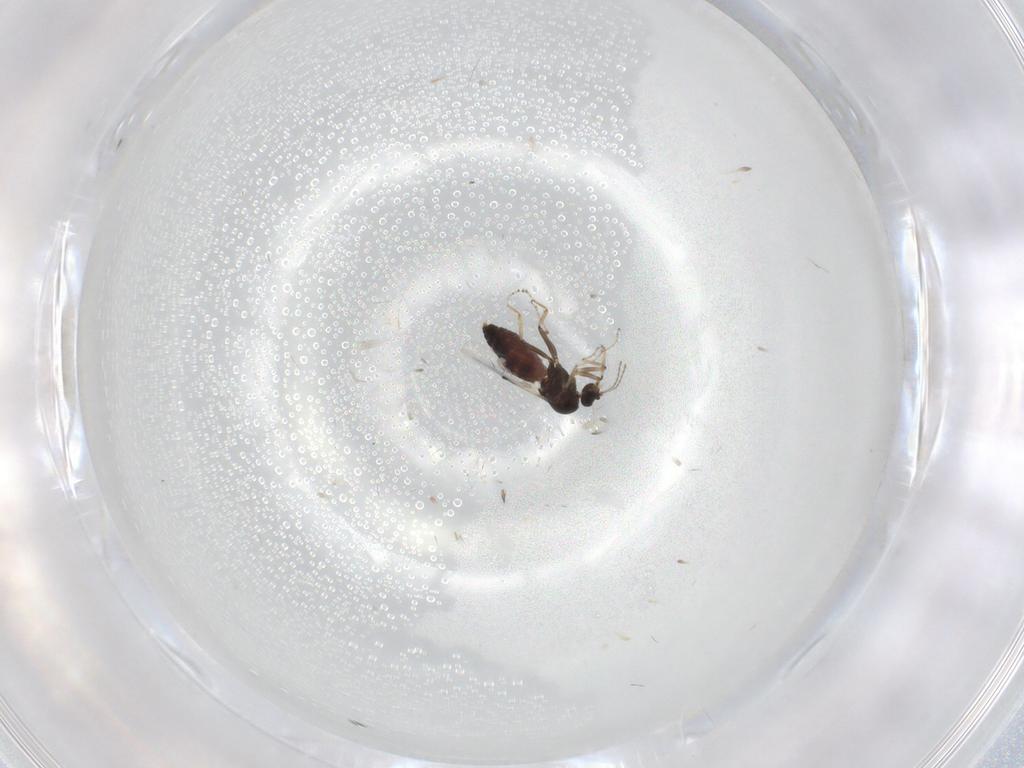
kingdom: Animalia
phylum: Arthropoda
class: Insecta
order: Diptera
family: Ceratopogonidae
